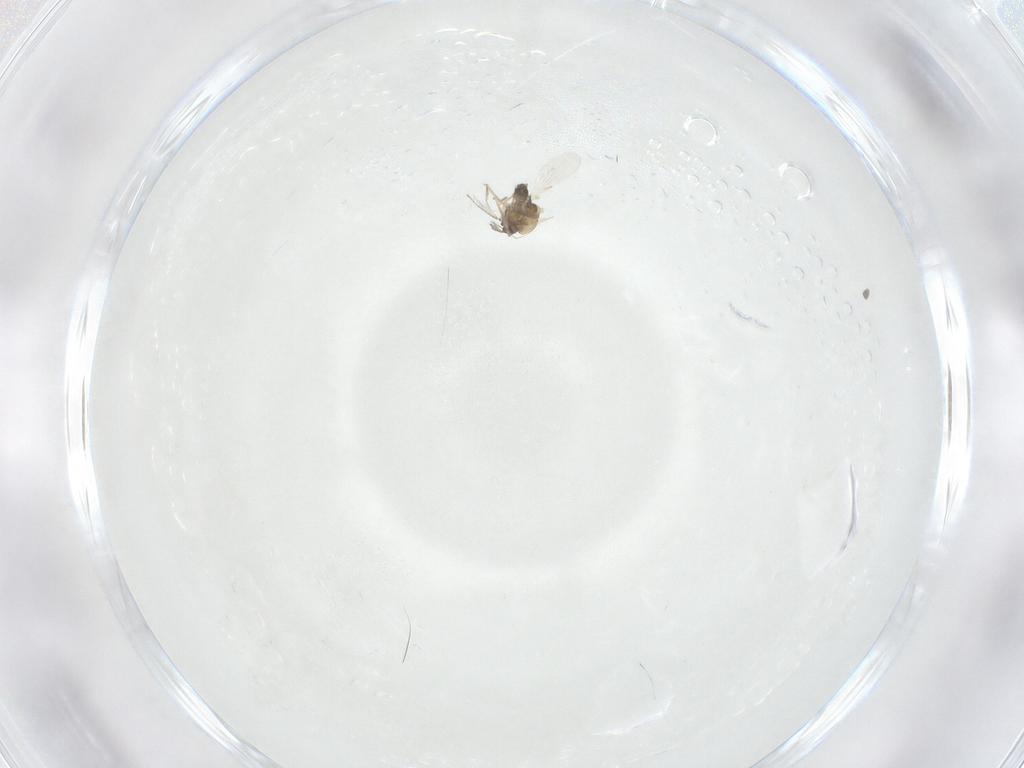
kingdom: Animalia
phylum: Arthropoda
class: Insecta
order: Diptera
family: Ceratopogonidae
